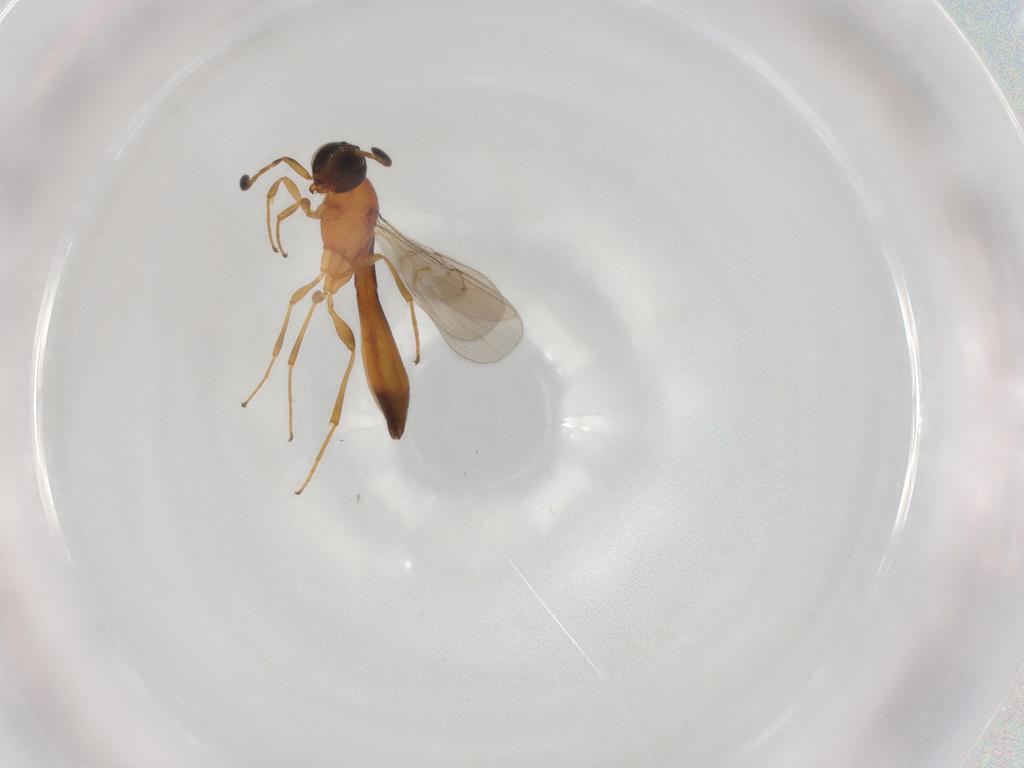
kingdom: Animalia
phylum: Arthropoda
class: Insecta
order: Hymenoptera
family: Scelionidae
